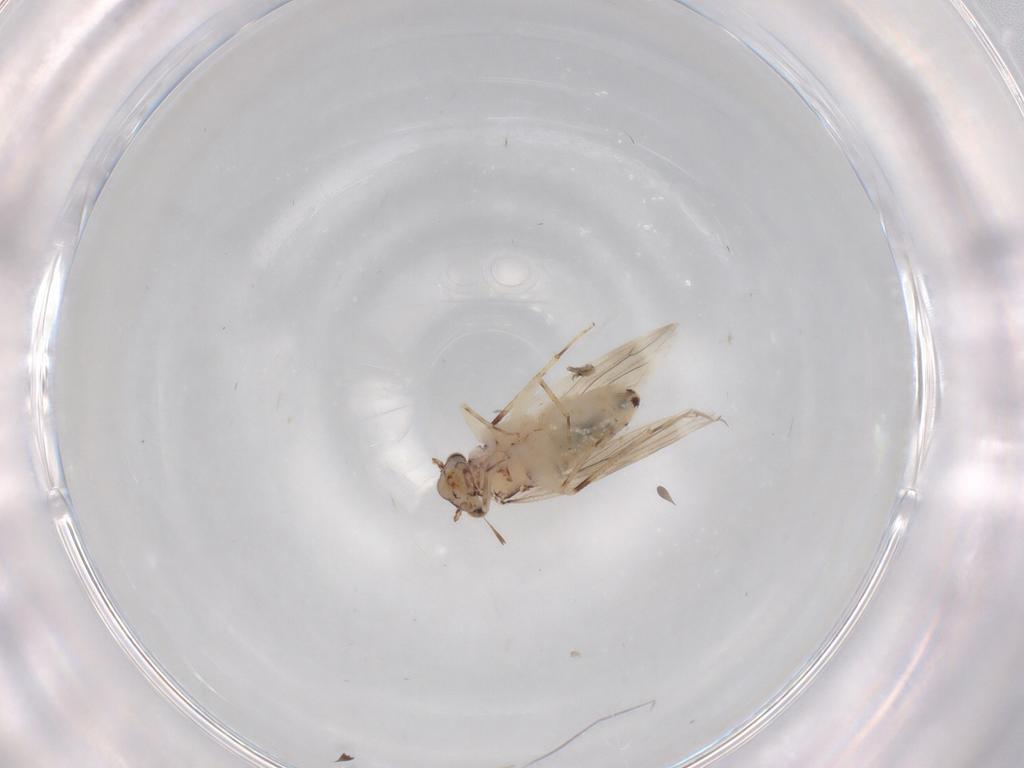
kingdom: Animalia
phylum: Arthropoda
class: Insecta
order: Psocodea
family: Lepidopsocidae
